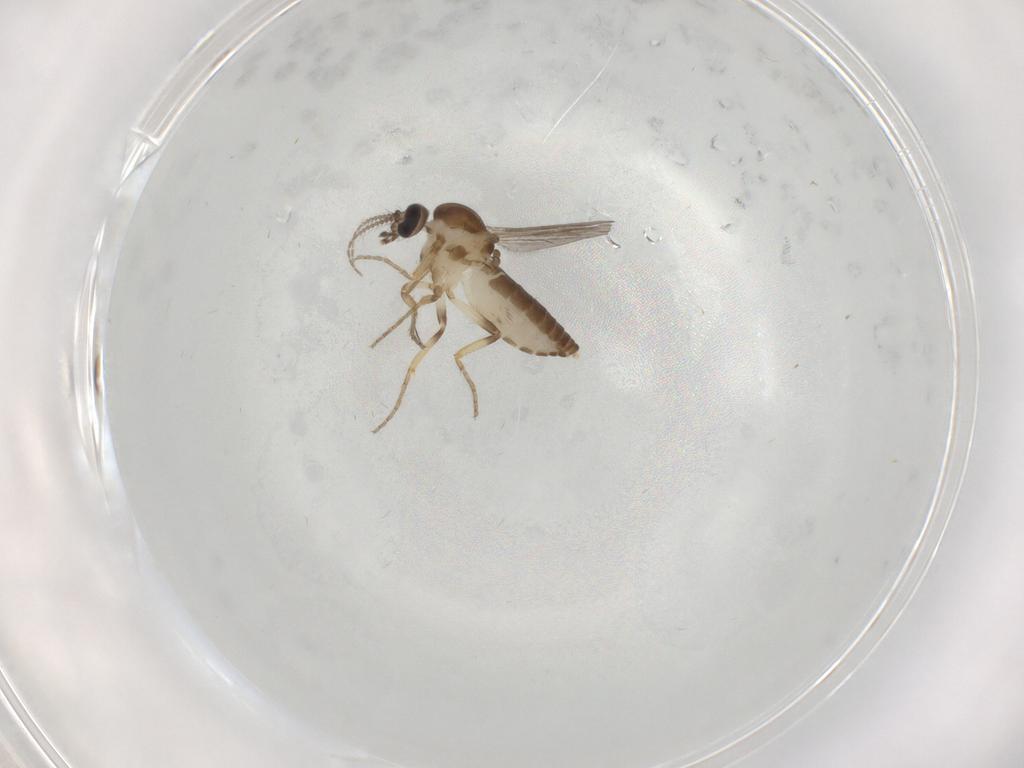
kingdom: Animalia
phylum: Arthropoda
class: Insecta
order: Diptera
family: Ceratopogonidae
